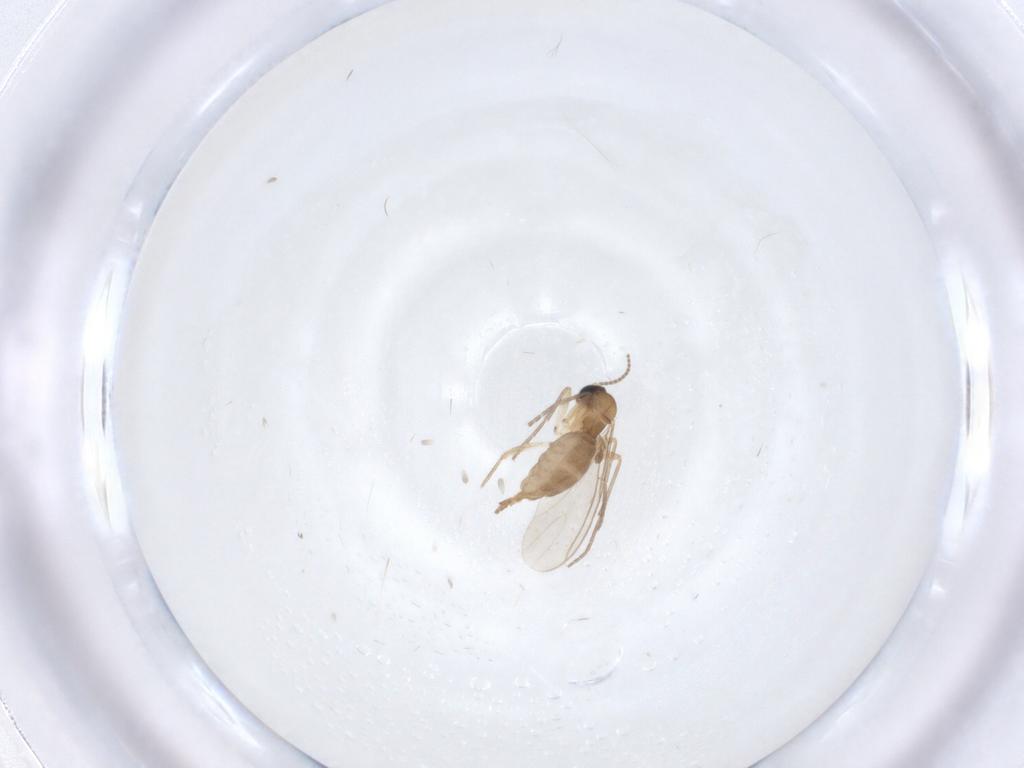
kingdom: Animalia
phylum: Arthropoda
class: Insecta
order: Diptera
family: Sciaridae
